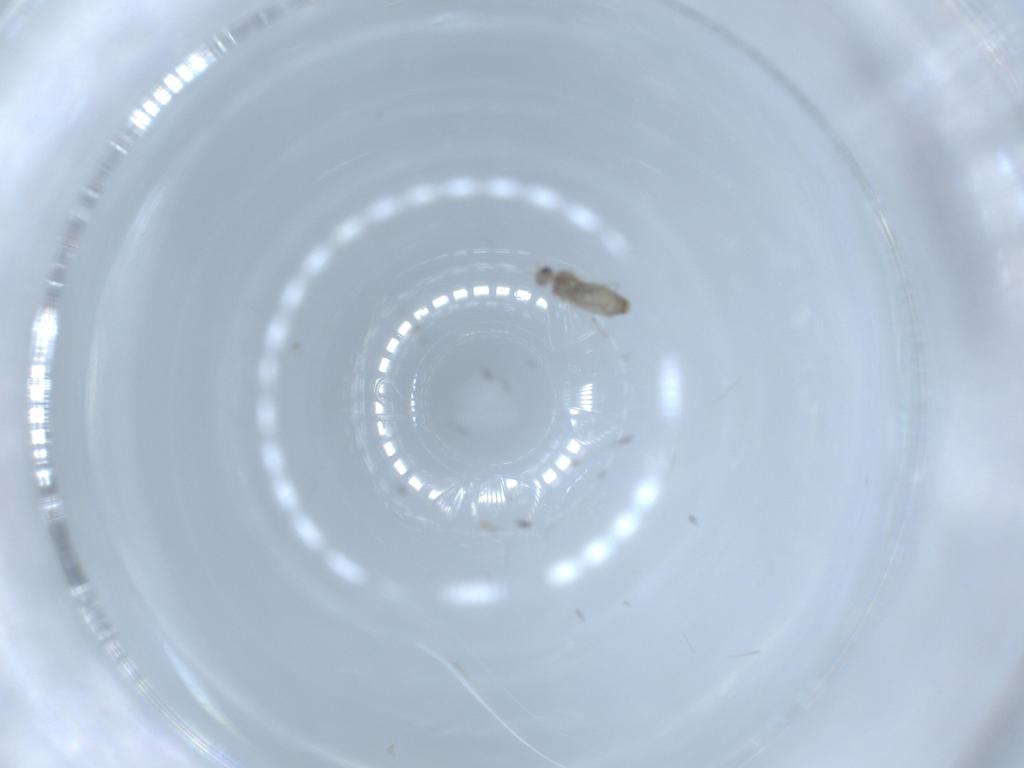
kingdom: Animalia
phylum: Arthropoda
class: Insecta
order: Diptera
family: Cecidomyiidae
